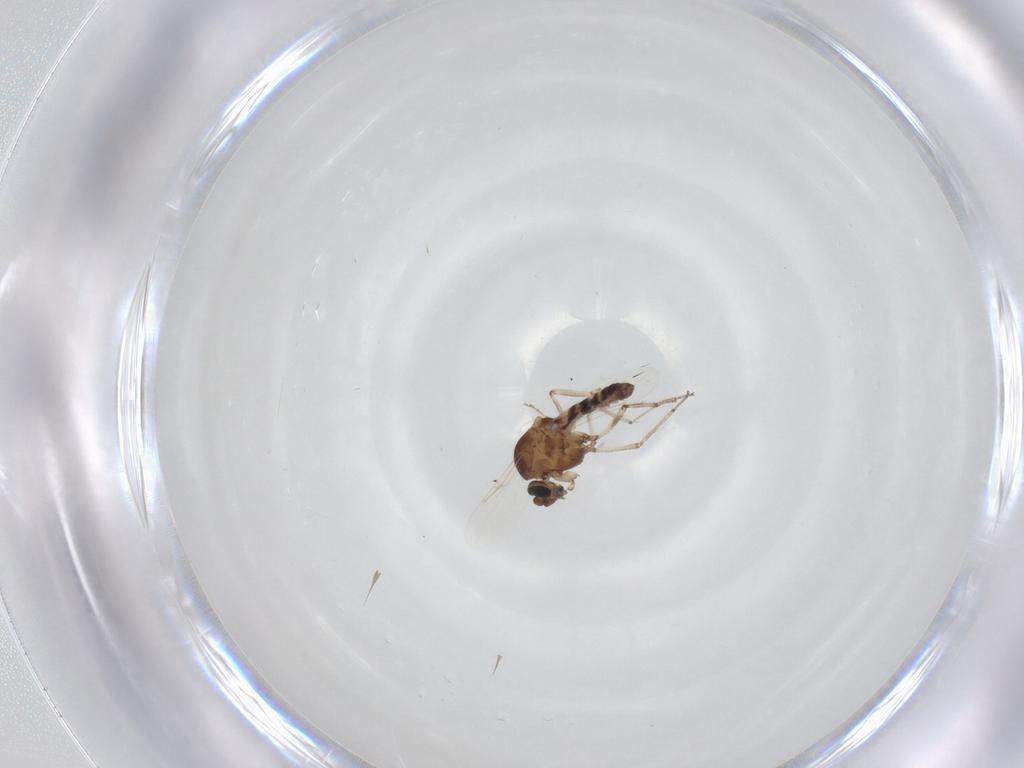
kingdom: Animalia
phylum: Arthropoda
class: Insecta
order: Diptera
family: Ceratopogonidae
